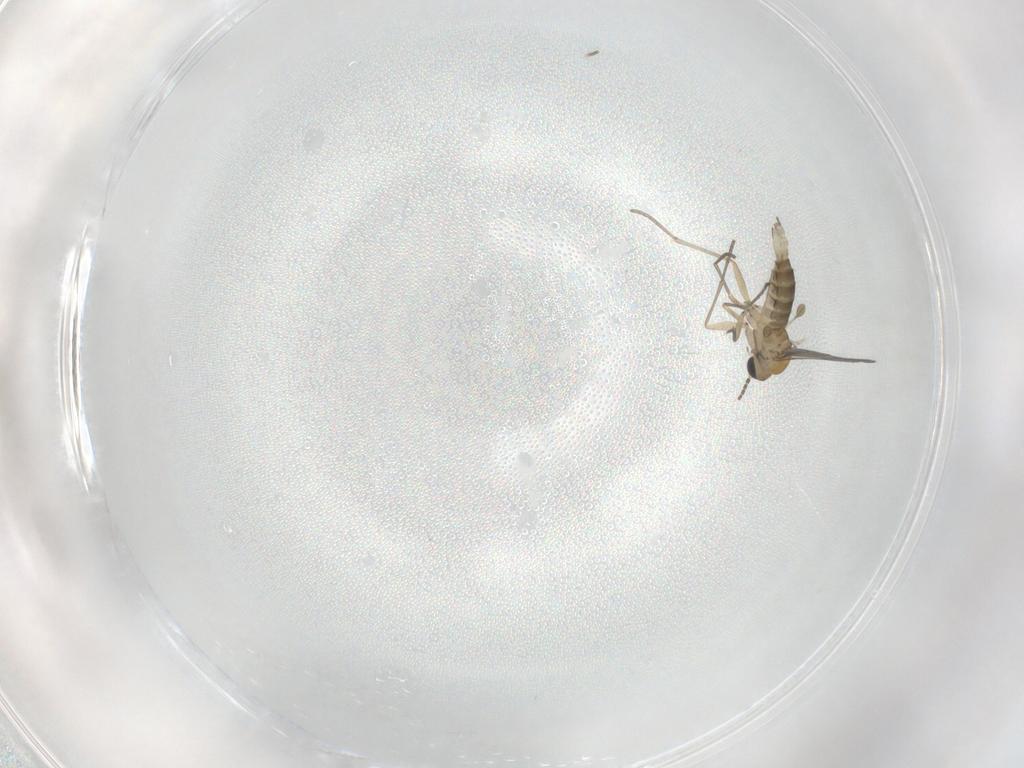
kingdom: Animalia
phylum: Arthropoda
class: Insecta
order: Diptera
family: Sciaridae
